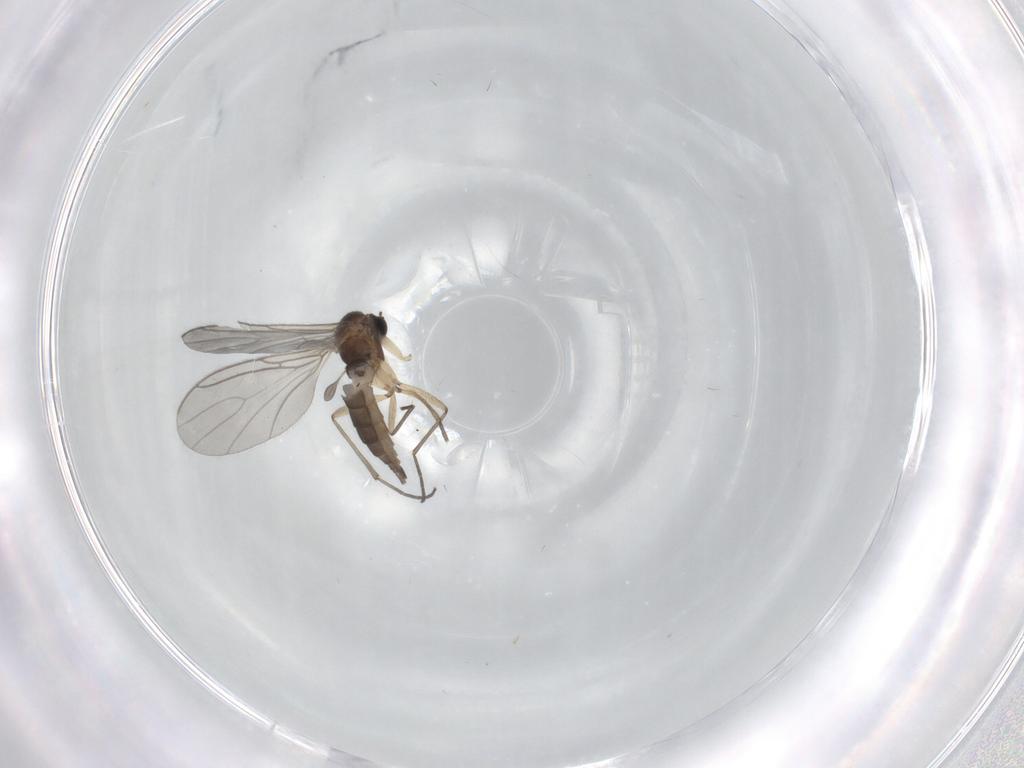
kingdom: Animalia
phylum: Arthropoda
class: Insecta
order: Diptera
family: Sciaridae
